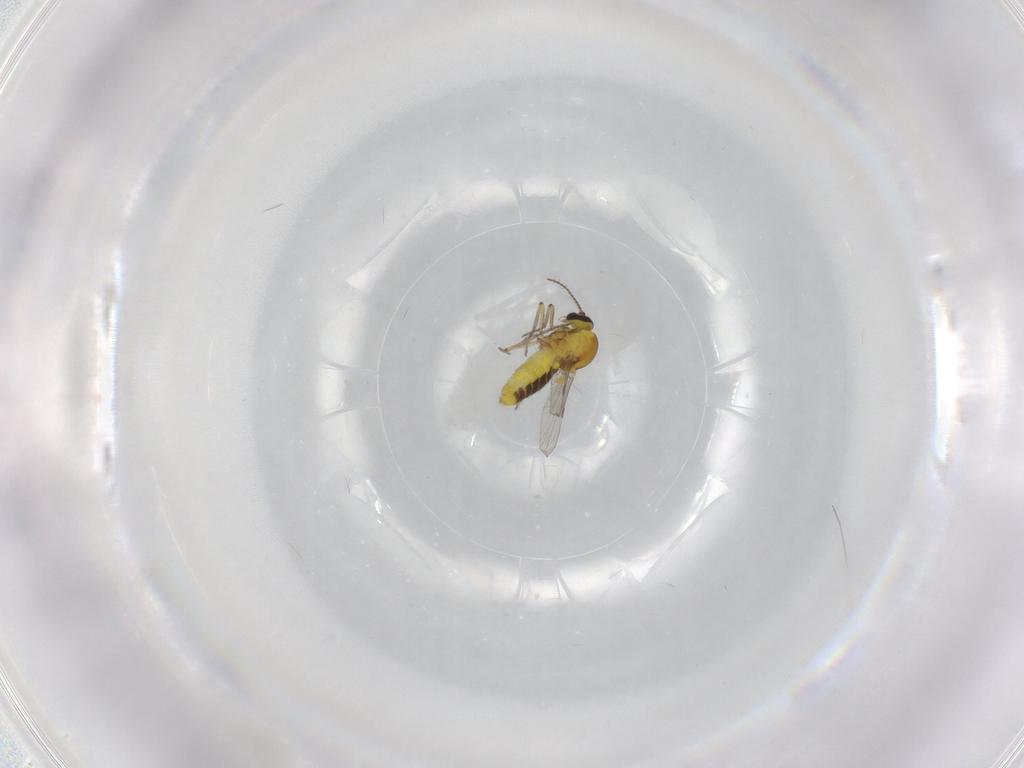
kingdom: Animalia
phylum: Arthropoda
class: Insecta
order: Diptera
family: Ceratopogonidae
